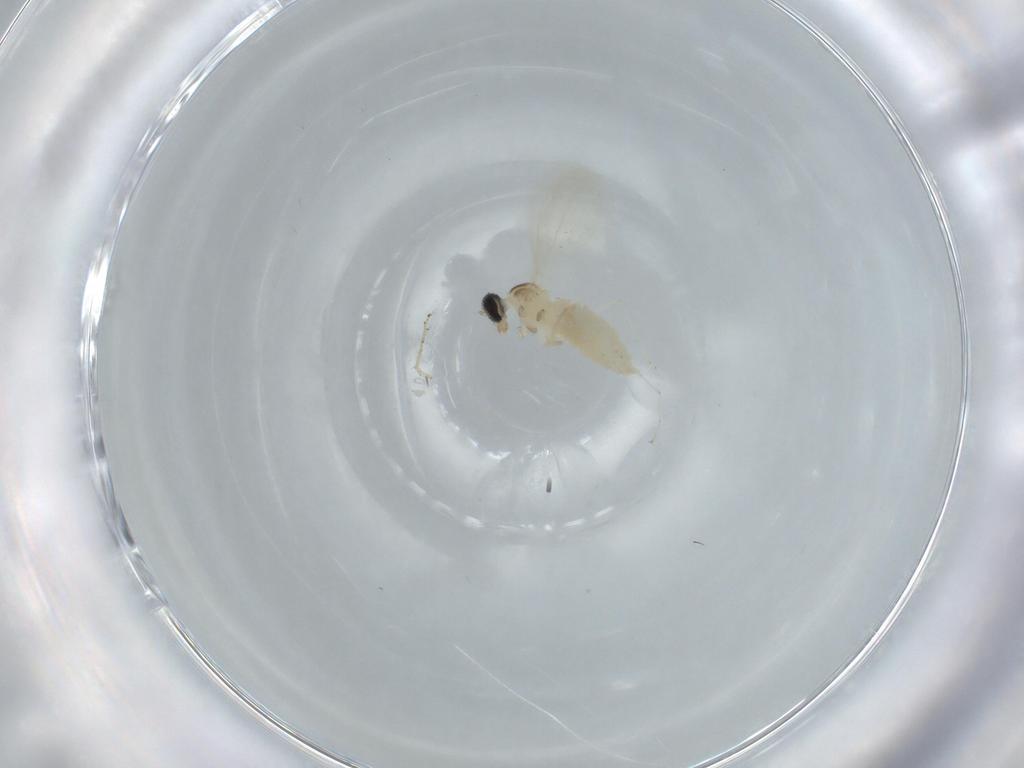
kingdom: Animalia
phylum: Arthropoda
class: Insecta
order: Diptera
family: Cecidomyiidae
